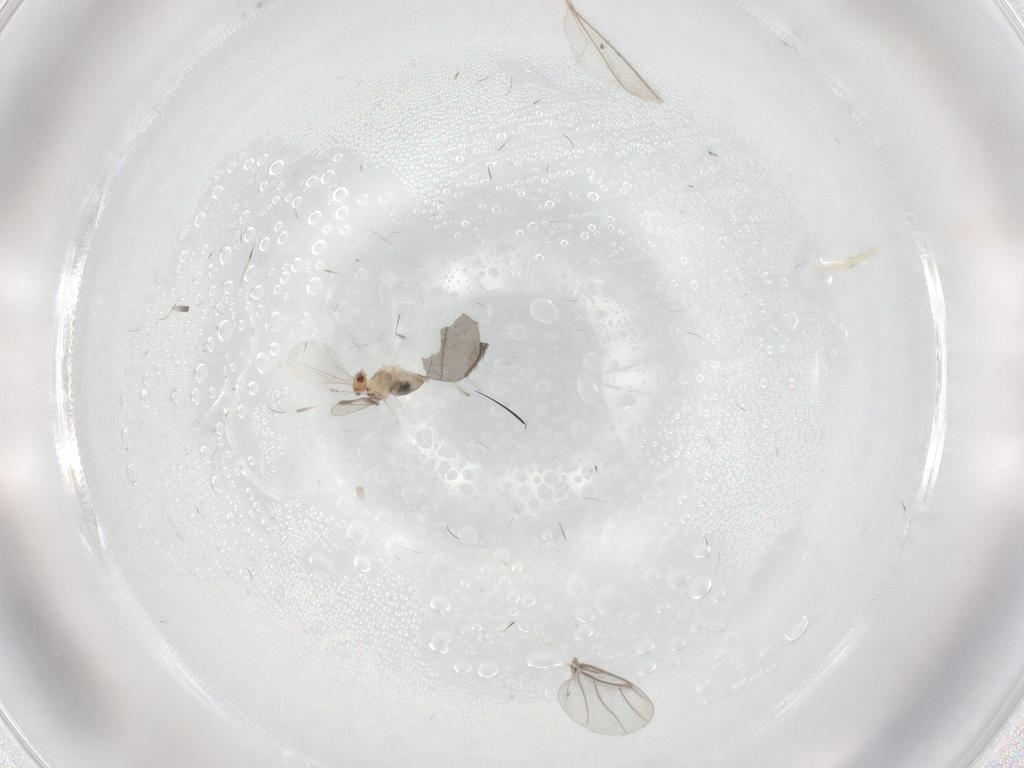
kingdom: Animalia
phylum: Arthropoda
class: Insecta
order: Diptera
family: Cecidomyiidae
